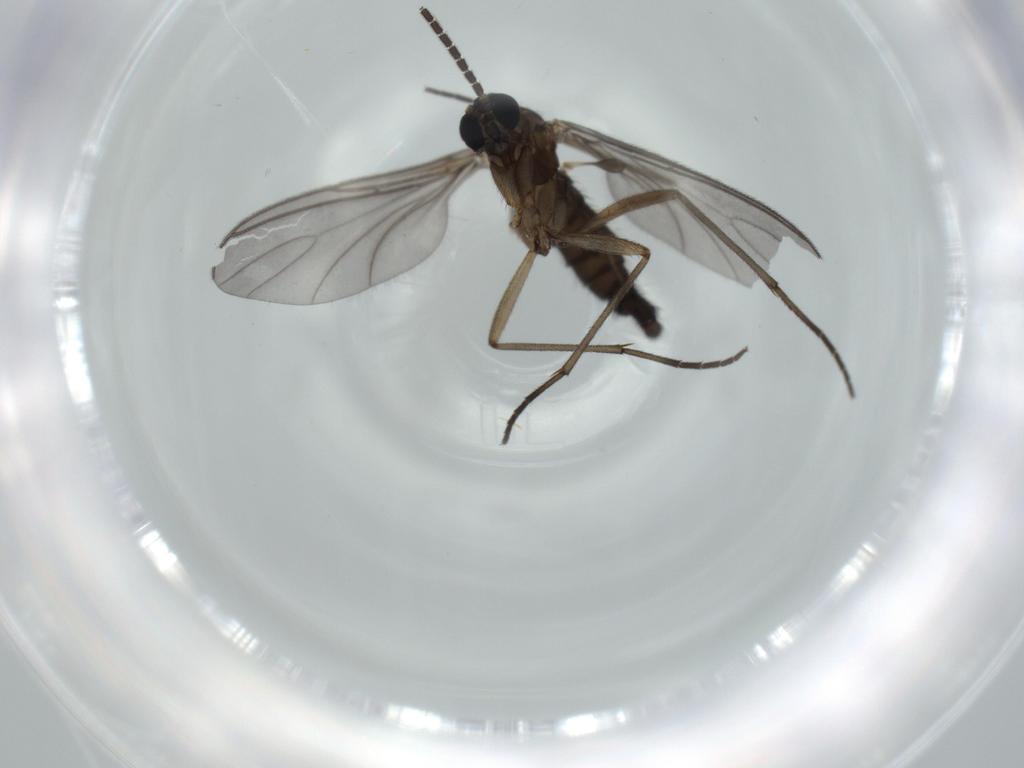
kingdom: Animalia
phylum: Arthropoda
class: Insecta
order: Diptera
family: Sciaridae
